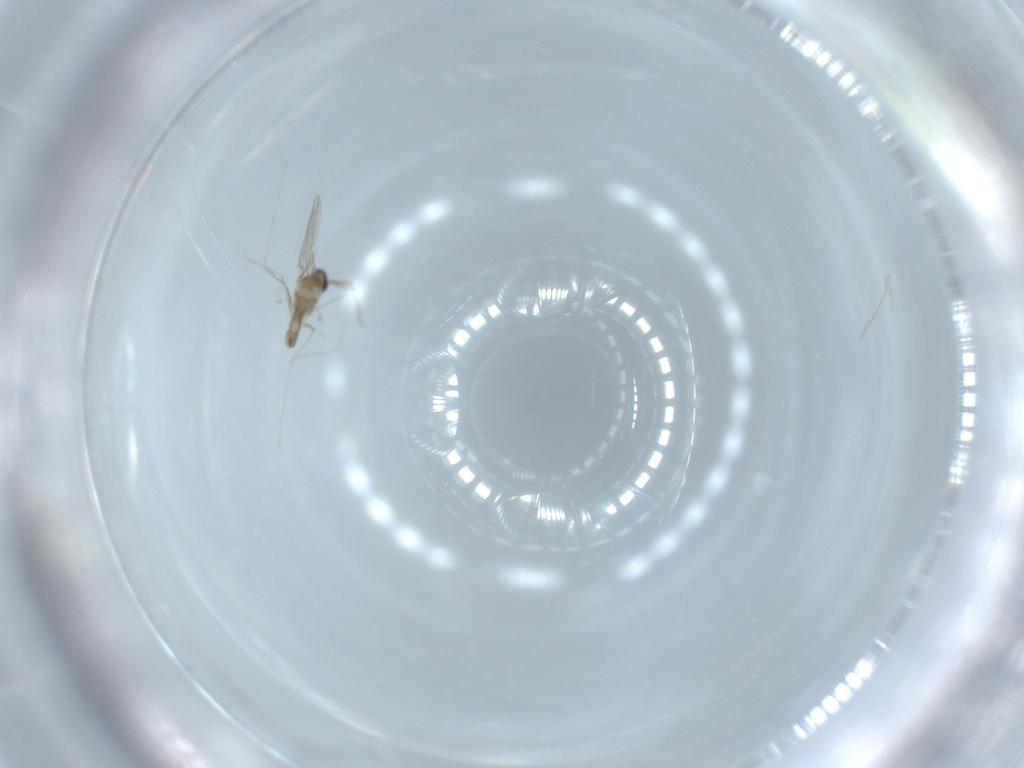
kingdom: Animalia
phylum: Arthropoda
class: Insecta
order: Diptera
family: Cecidomyiidae
